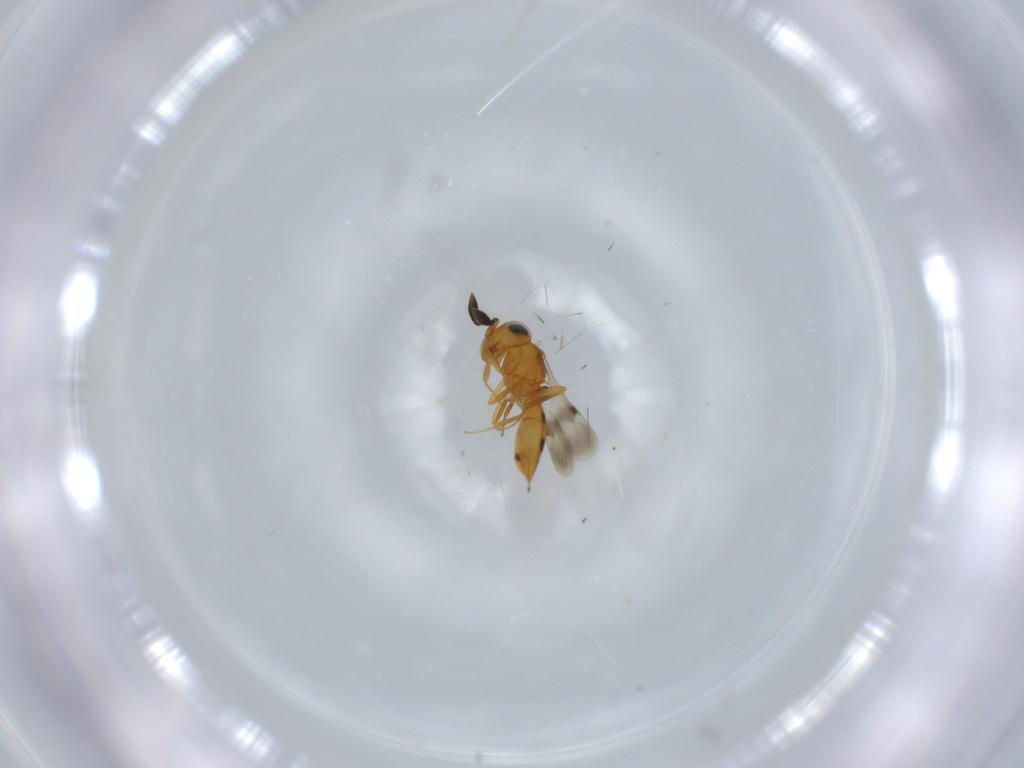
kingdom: Animalia
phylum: Arthropoda
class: Insecta
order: Hymenoptera
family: Scelionidae
